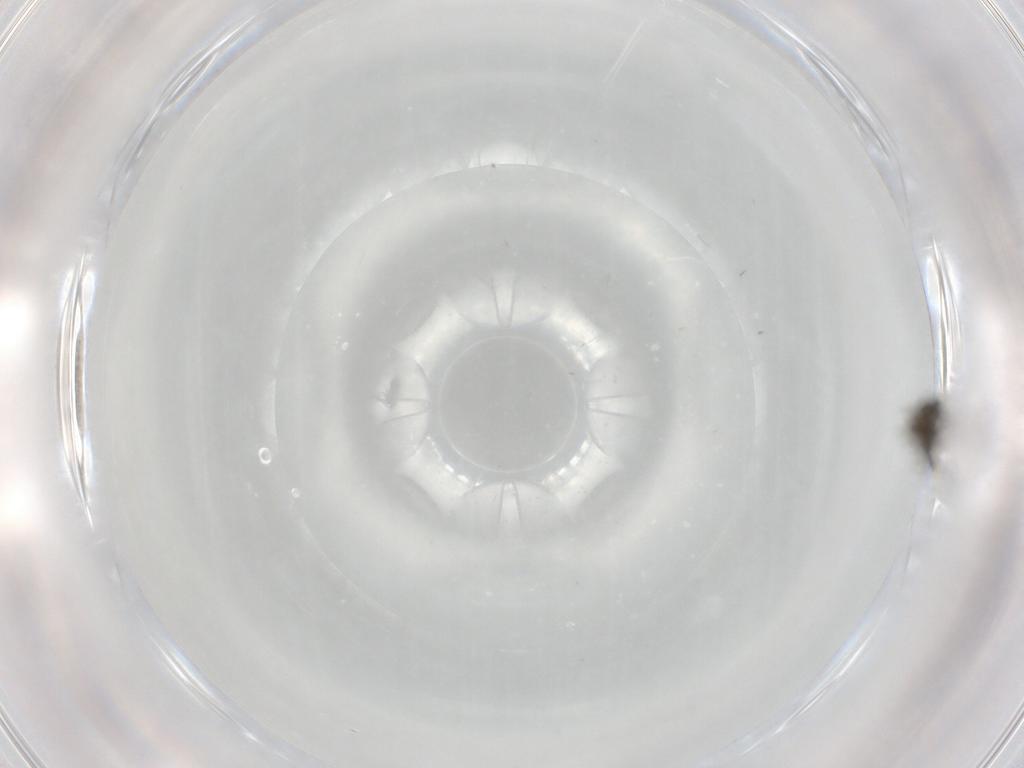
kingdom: Animalia
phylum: Arthropoda
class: Insecta
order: Diptera
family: Ceratopogonidae
